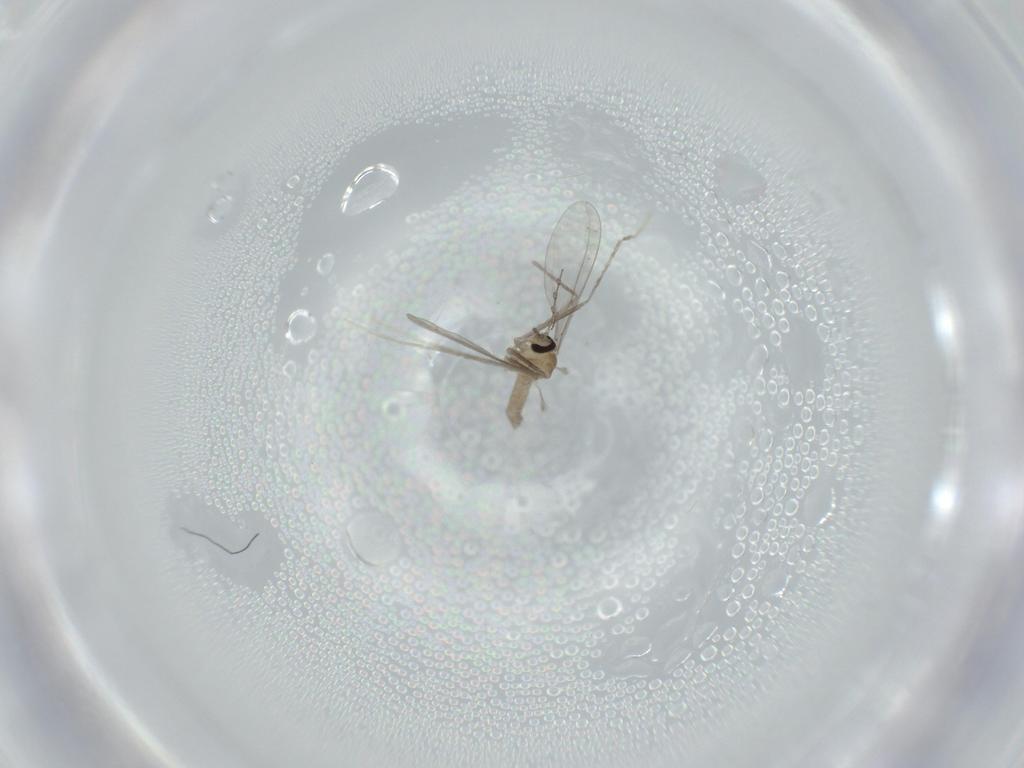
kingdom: Animalia
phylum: Arthropoda
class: Insecta
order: Diptera
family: Cecidomyiidae
